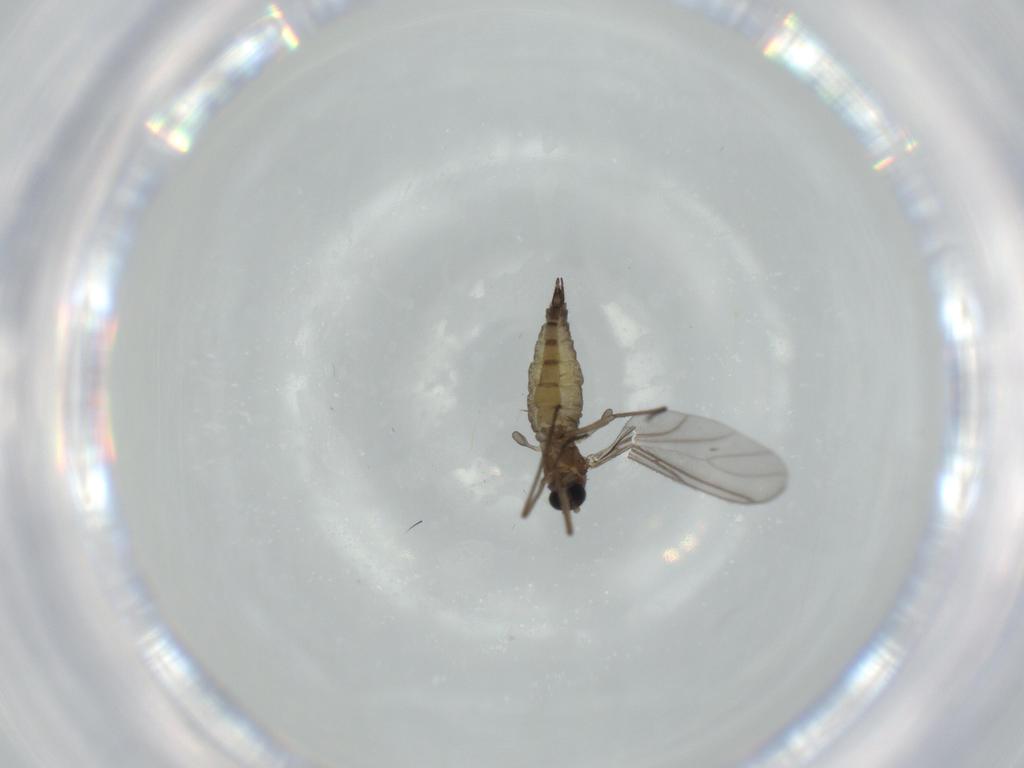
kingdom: Animalia
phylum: Arthropoda
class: Insecta
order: Diptera
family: Sciaridae
